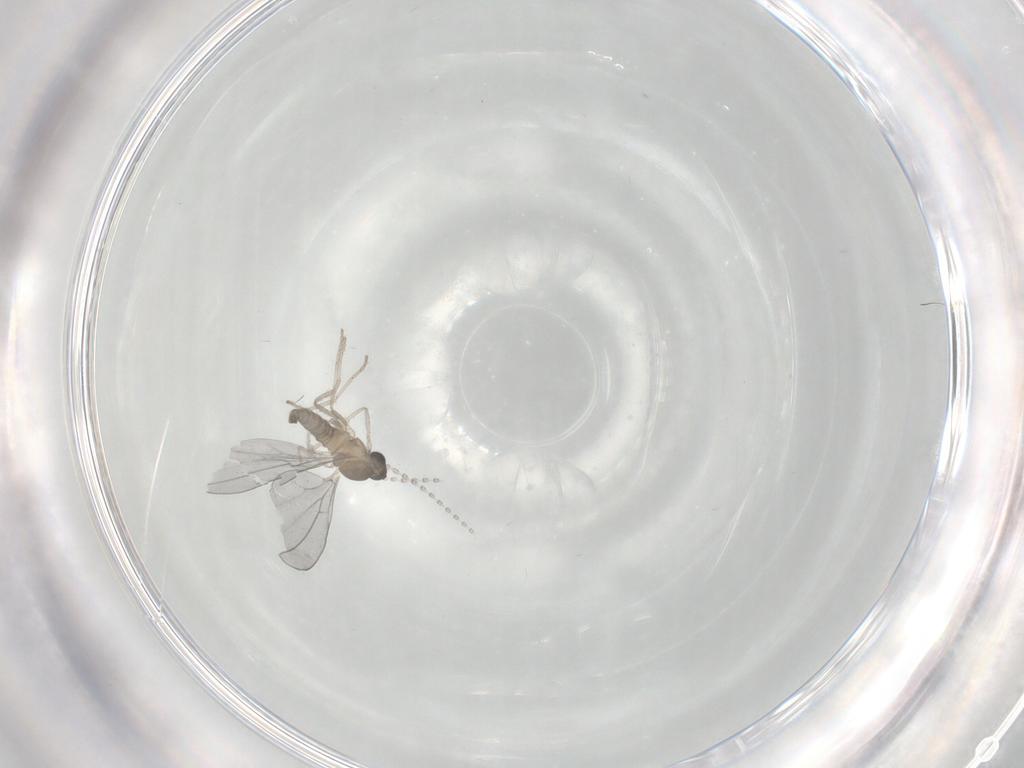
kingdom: Animalia
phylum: Arthropoda
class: Insecta
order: Diptera
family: Chironomidae
